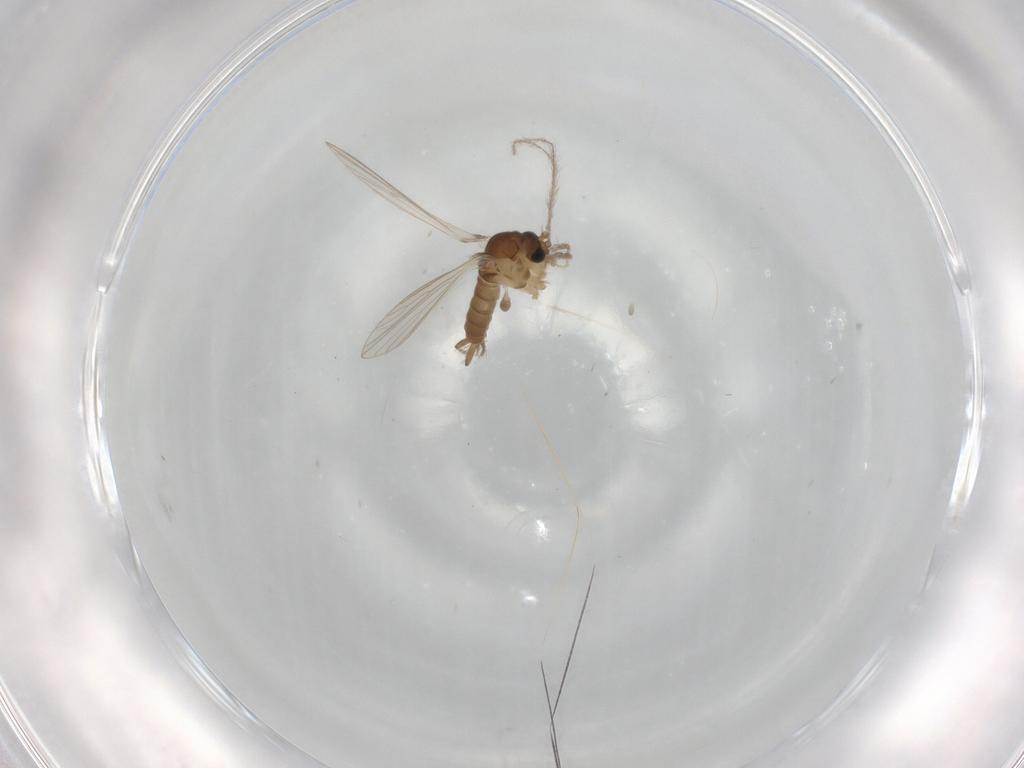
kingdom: Animalia
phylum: Arthropoda
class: Insecta
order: Diptera
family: Psychodidae
